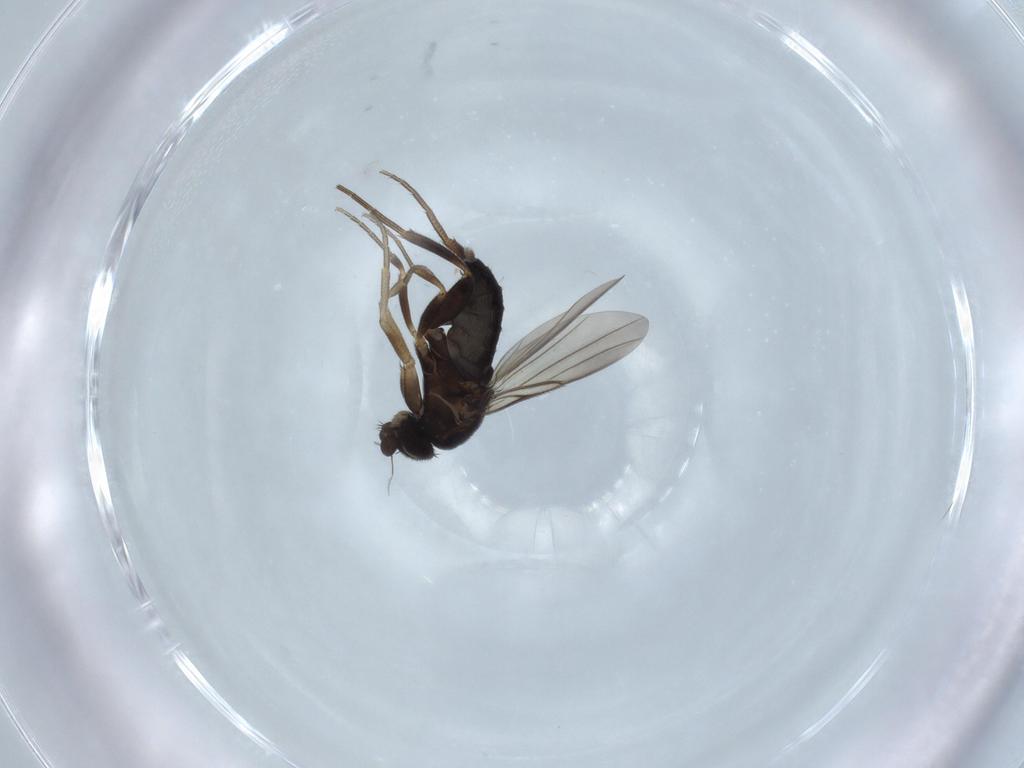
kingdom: Animalia
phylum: Arthropoda
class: Insecta
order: Diptera
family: Phoridae
